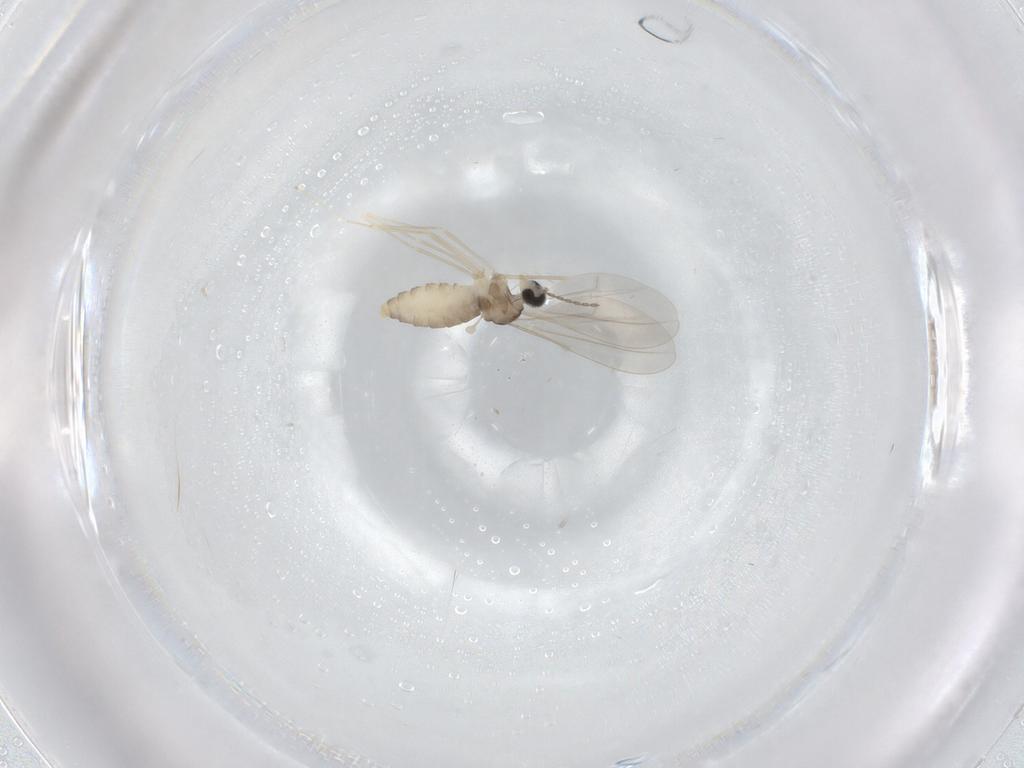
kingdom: Animalia
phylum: Arthropoda
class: Insecta
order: Diptera
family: Cecidomyiidae
